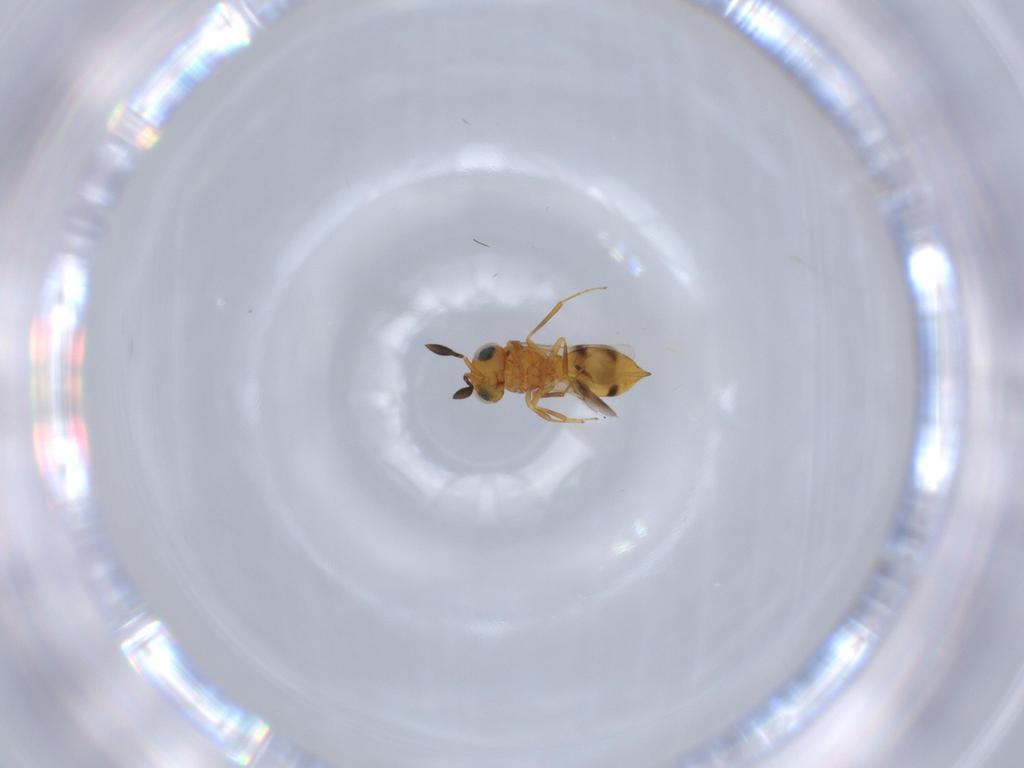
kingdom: Animalia
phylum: Arthropoda
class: Insecta
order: Hymenoptera
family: Scelionidae
